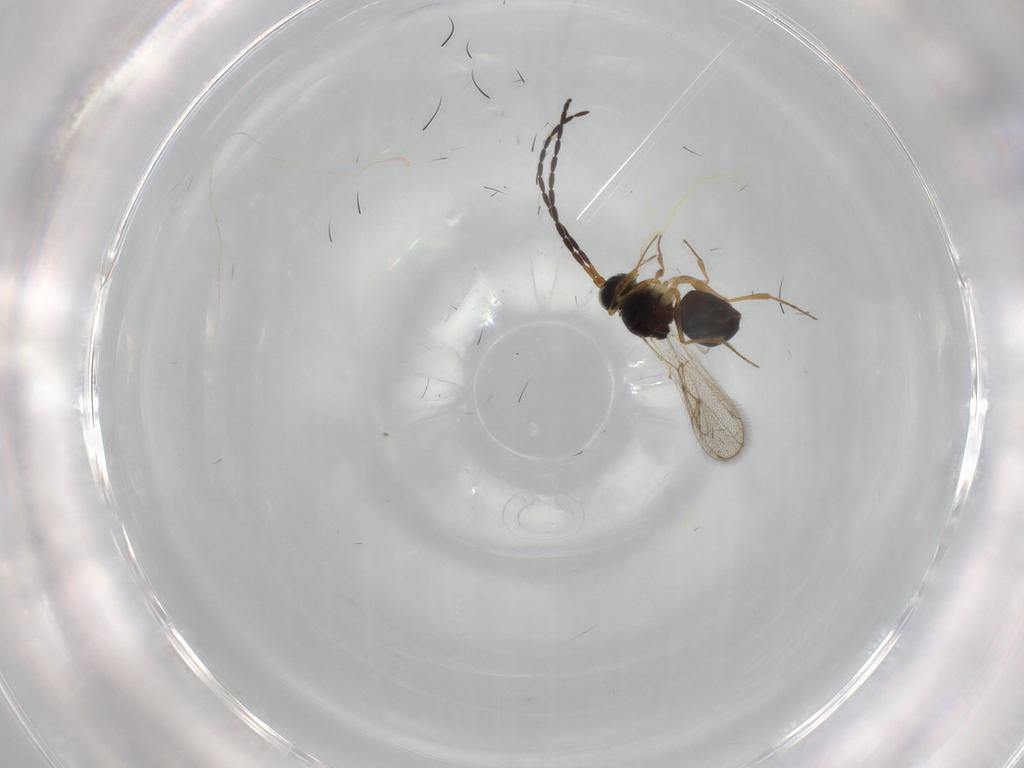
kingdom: Animalia
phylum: Arthropoda
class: Insecta
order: Hymenoptera
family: Figitidae
